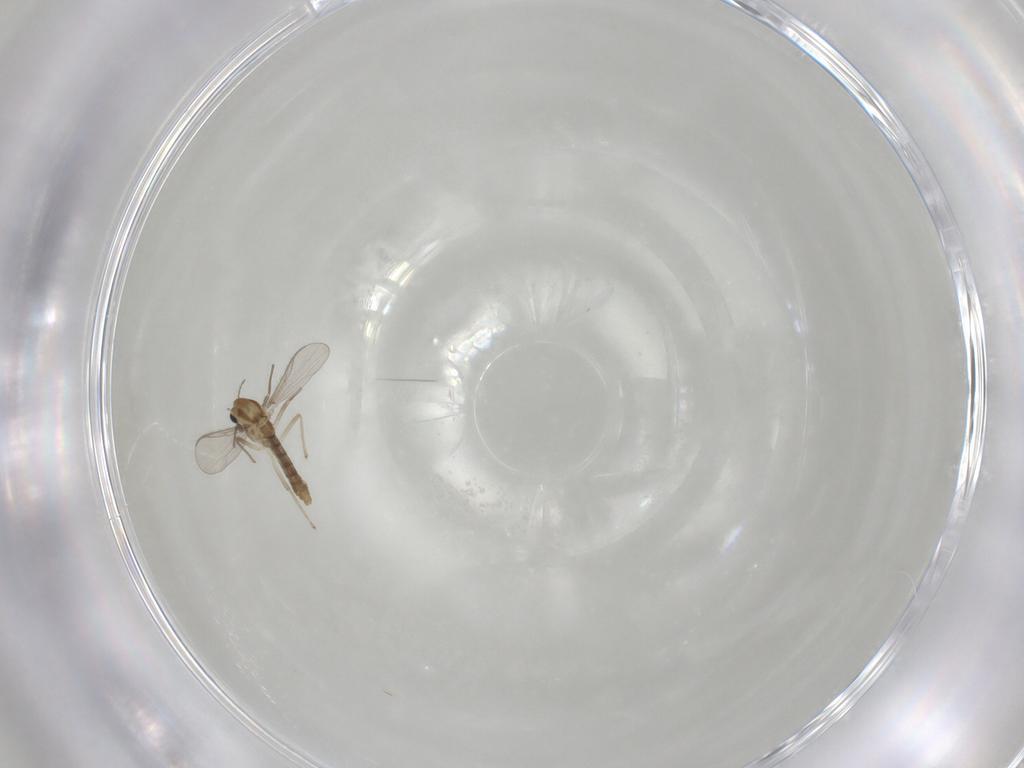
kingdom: Animalia
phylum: Arthropoda
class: Insecta
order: Diptera
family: Chironomidae
